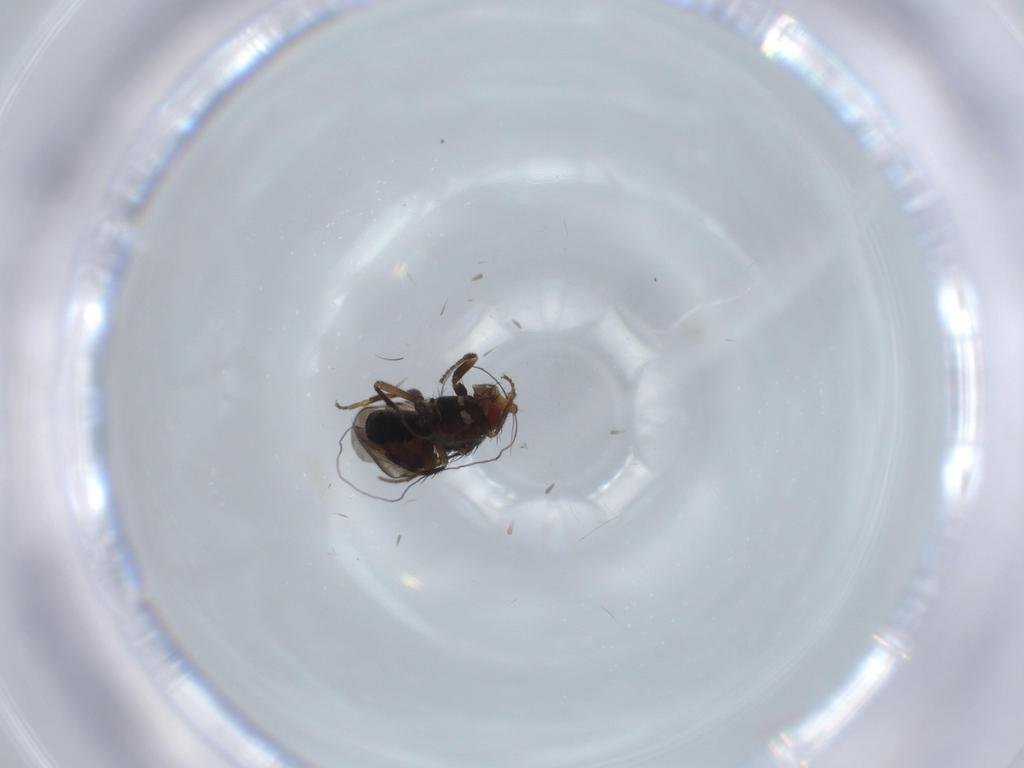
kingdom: Animalia
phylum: Arthropoda
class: Insecta
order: Diptera
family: Sciaridae
